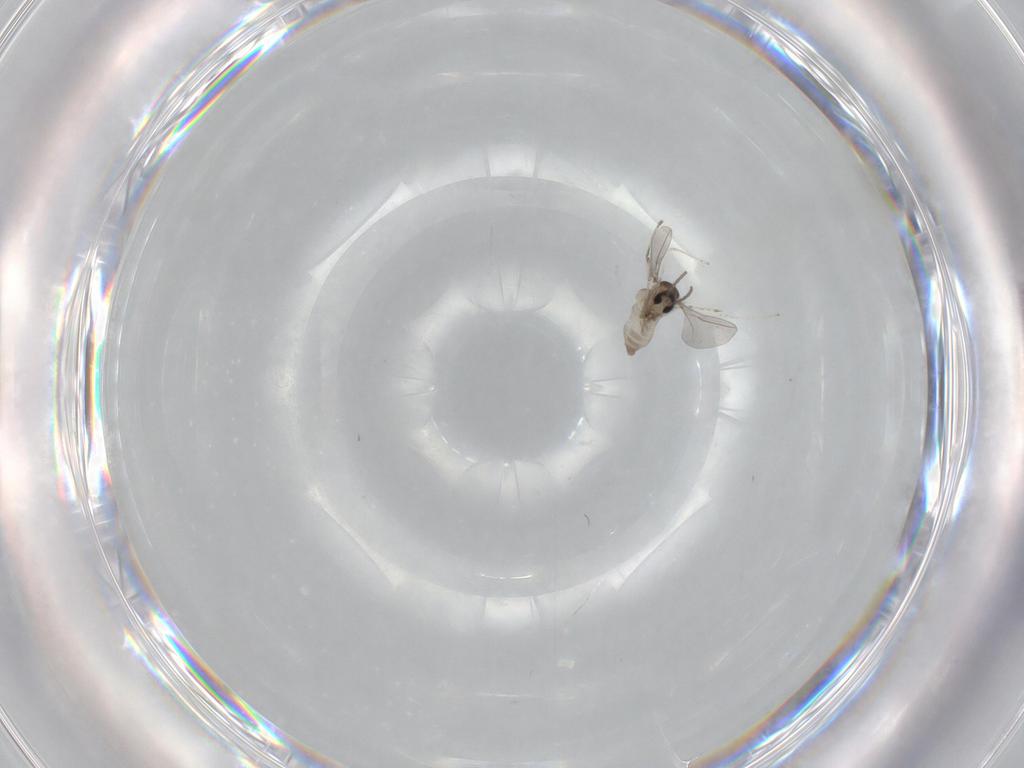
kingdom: Animalia
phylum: Arthropoda
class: Insecta
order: Diptera
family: Cecidomyiidae
